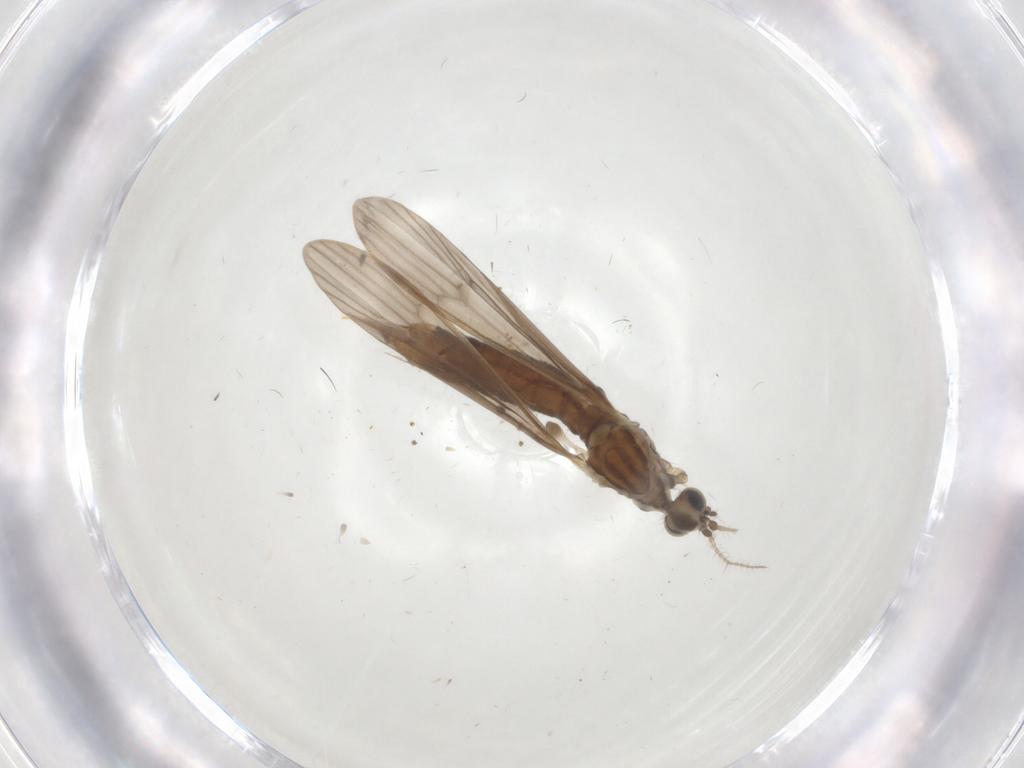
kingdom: Animalia
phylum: Arthropoda
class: Insecta
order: Diptera
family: Limoniidae
